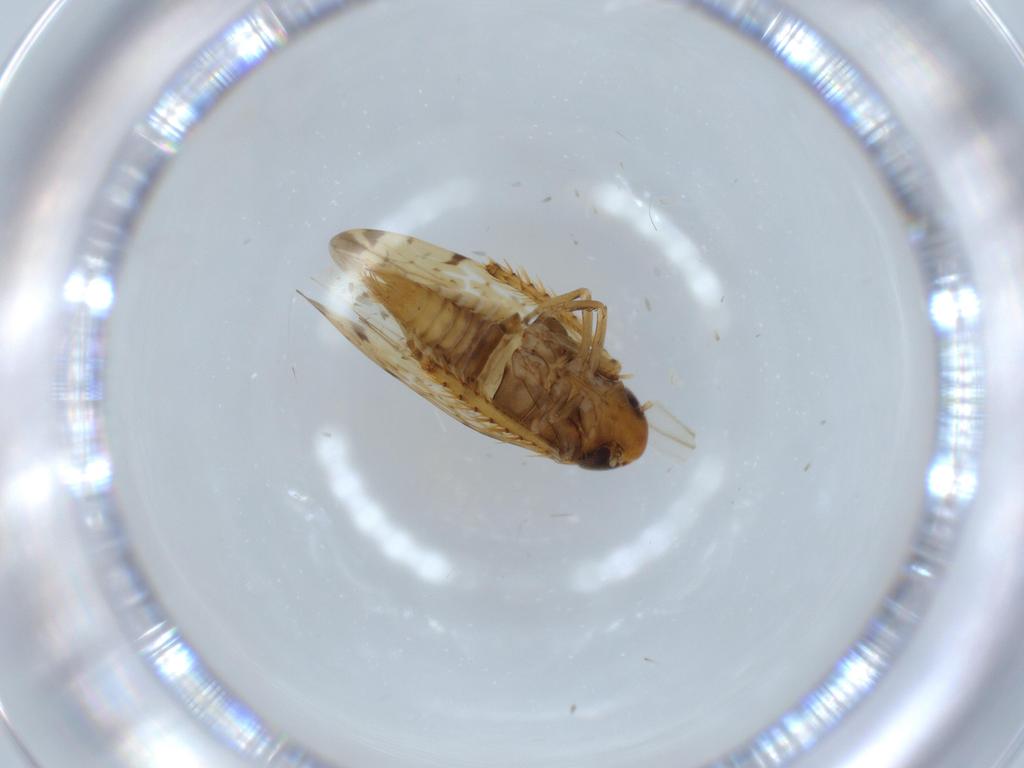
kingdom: Animalia
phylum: Arthropoda
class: Insecta
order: Hemiptera
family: Cicadellidae
